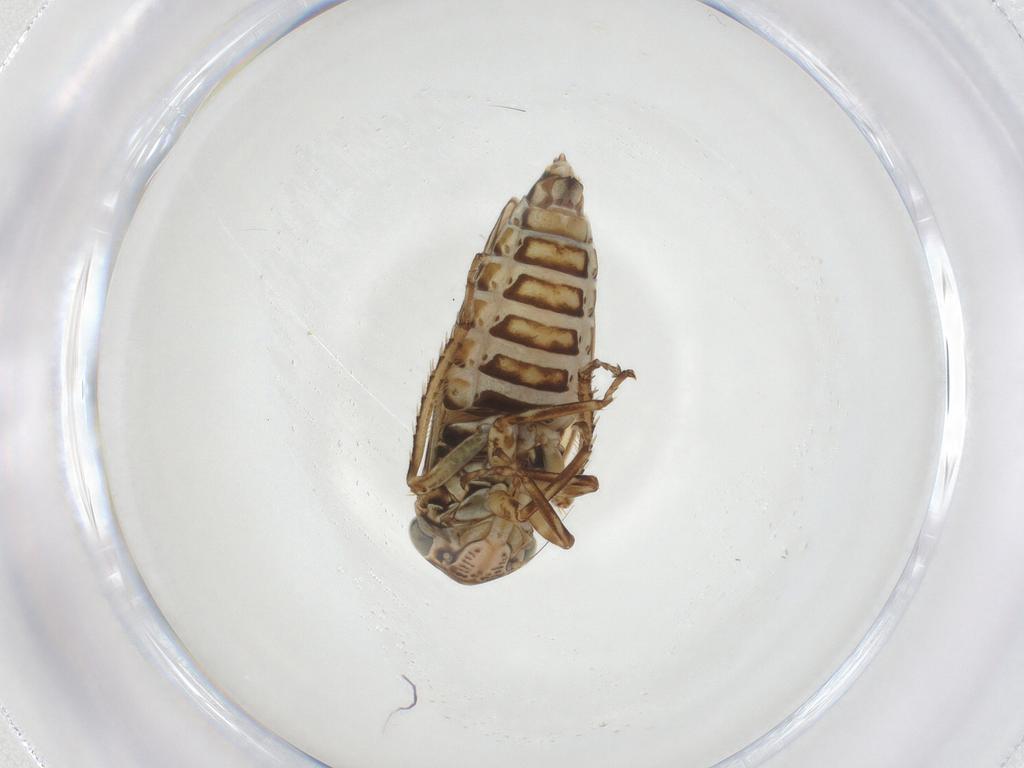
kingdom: Animalia
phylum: Arthropoda
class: Insecta
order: Hemiptera
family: Cicadellidae
